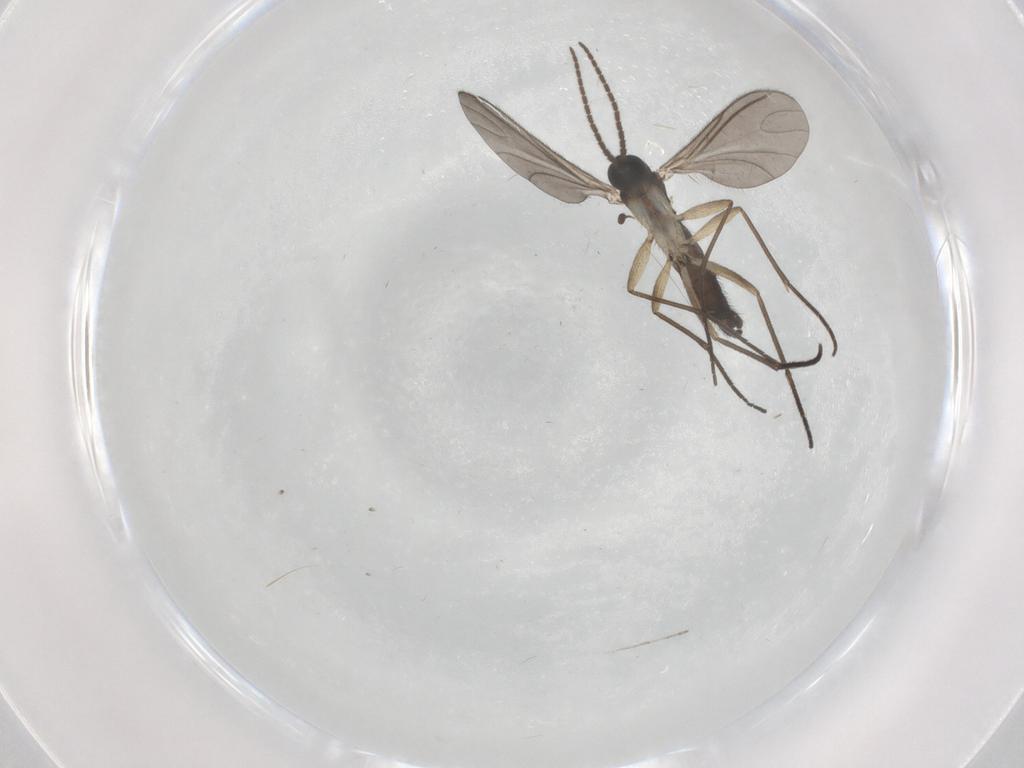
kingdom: Animalia
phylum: Arthropoda
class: Insecta
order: Diptera
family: Sciaridae
